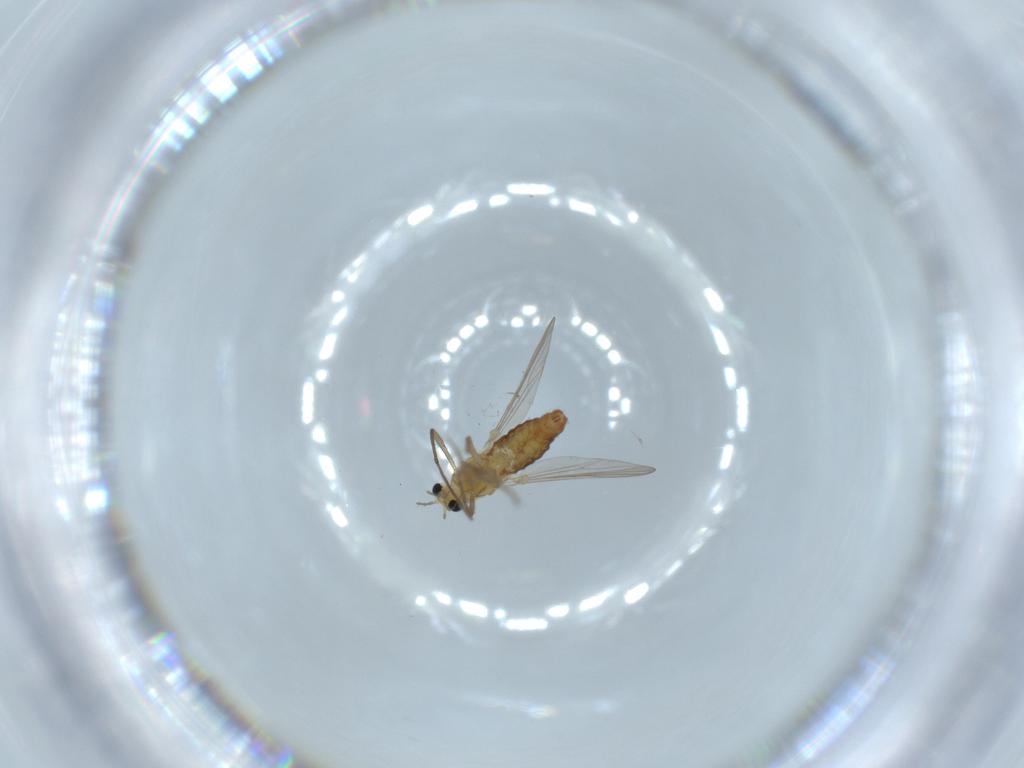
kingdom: Animalia
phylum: Arthropoda
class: Insecta
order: Diptera
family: Chironomidae
